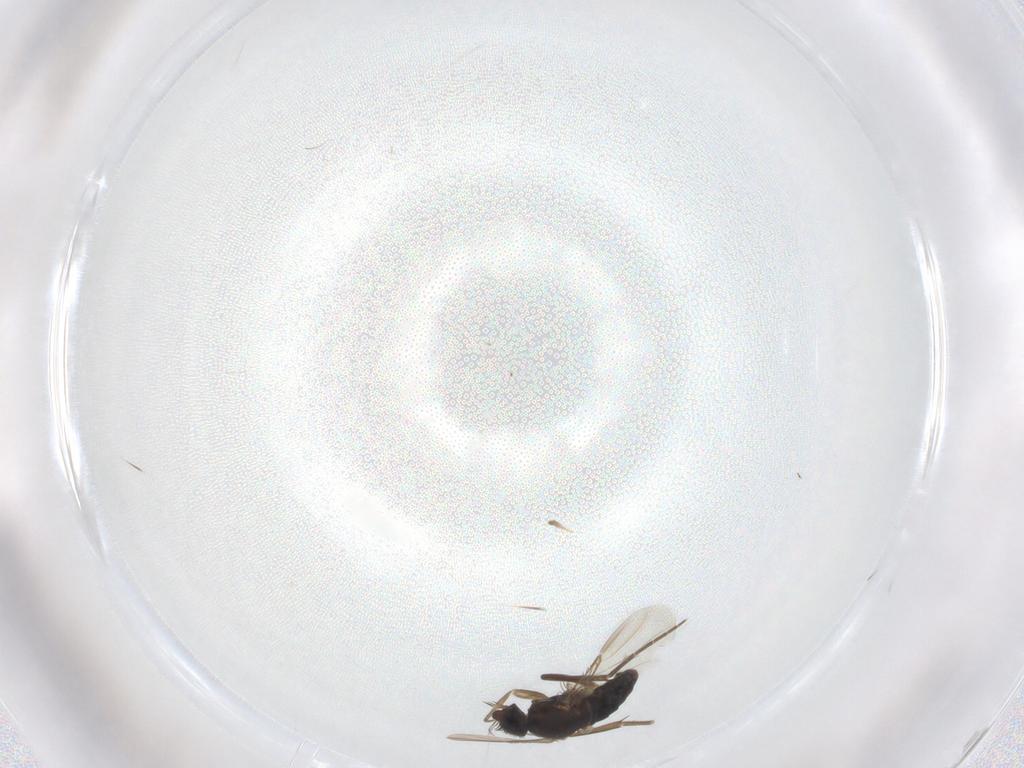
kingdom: Animalia
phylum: Arthropoda
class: Insecta
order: Diptera
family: Phoridae
